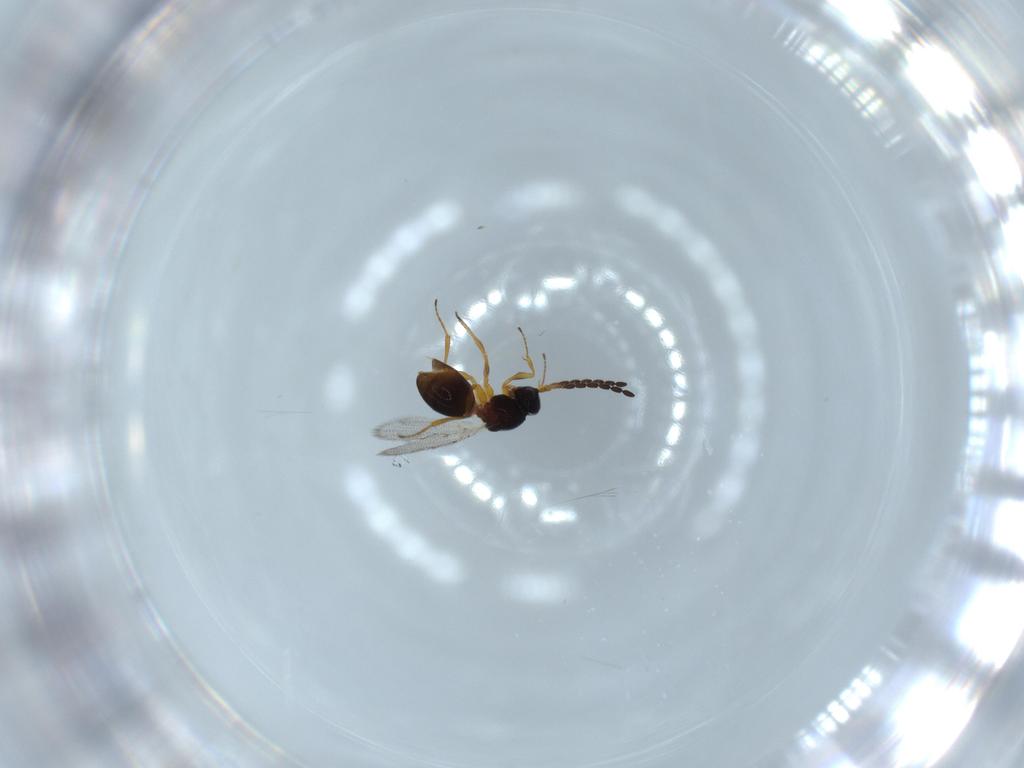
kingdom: Animalia
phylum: Arthropoda
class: Insecta
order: Hymenoptera
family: Figitidae
